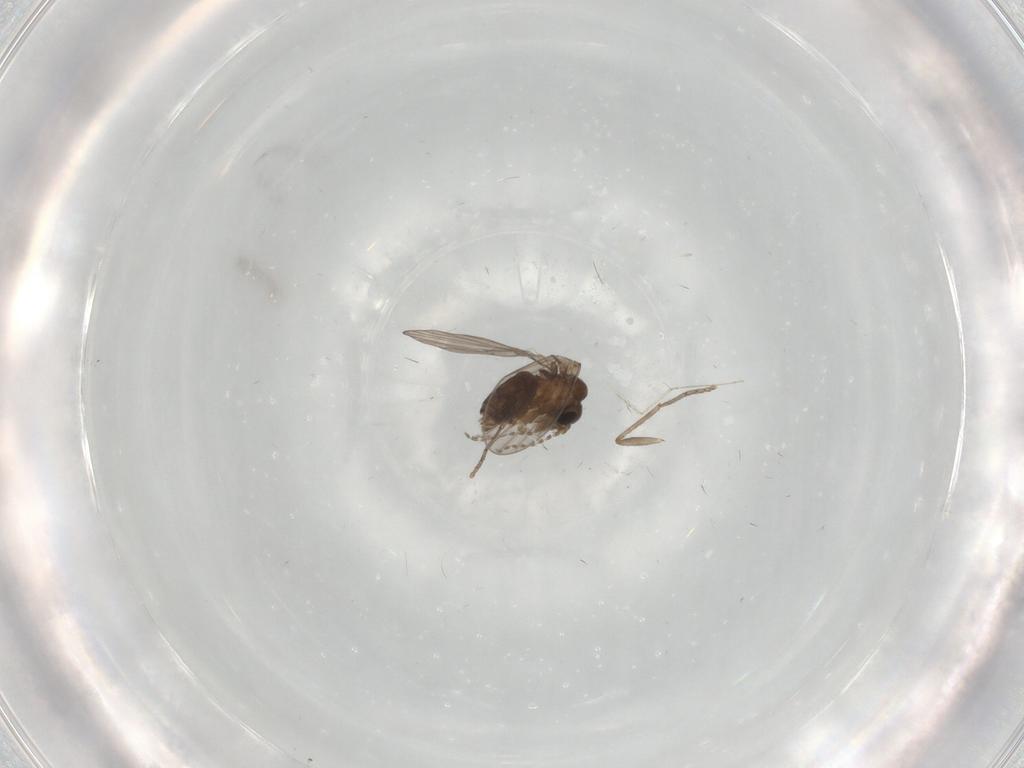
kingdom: Animalia
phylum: Arthropoda
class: Insecta
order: Diptera
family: Cecidomyiidae
